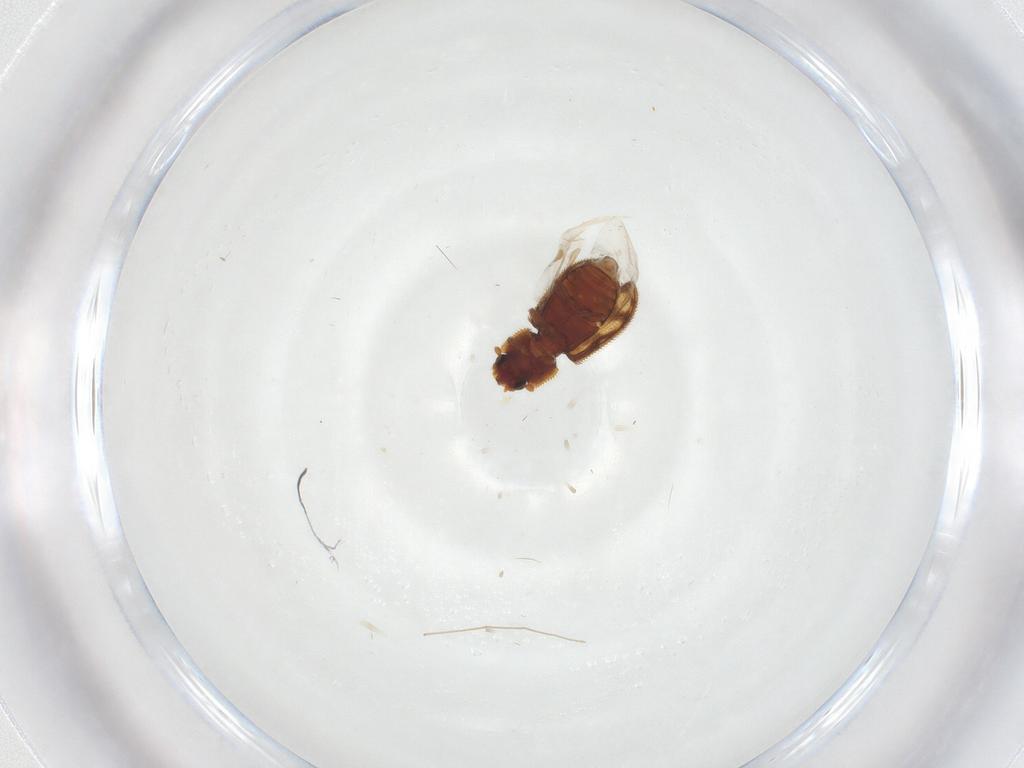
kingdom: Animalia
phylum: Arthropoda
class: Insecta
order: Coleoptera
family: Zopheridae
